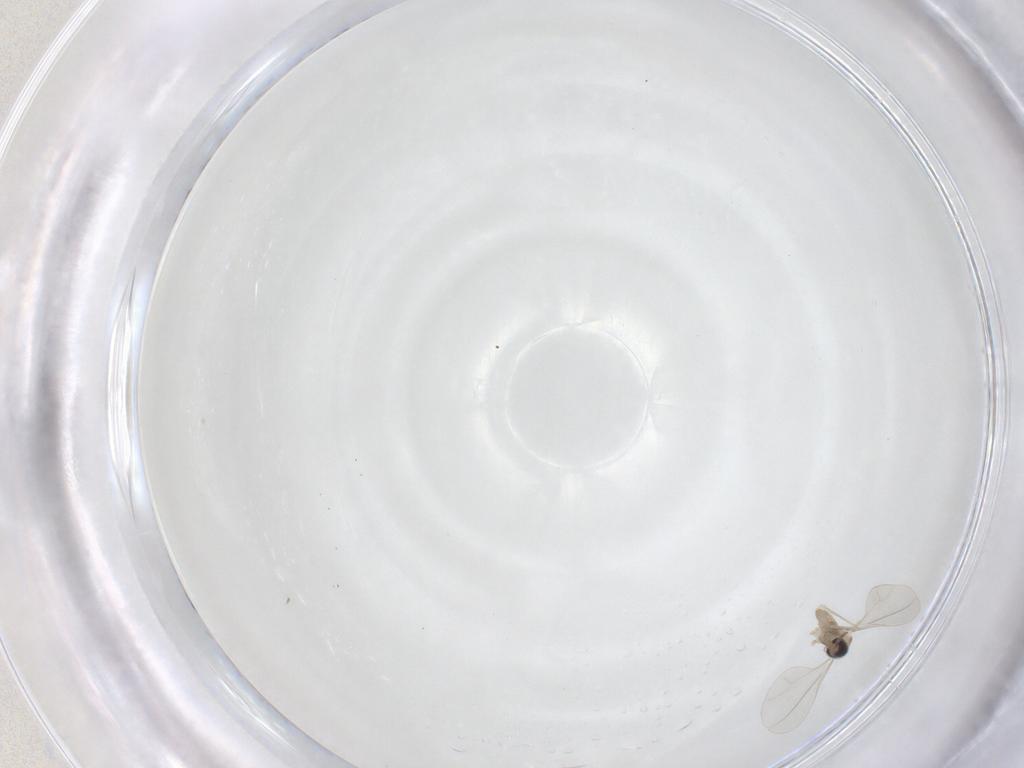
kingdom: Animalia
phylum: Arthropoda
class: Insecta
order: Diptera
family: Cecidomyiidae
